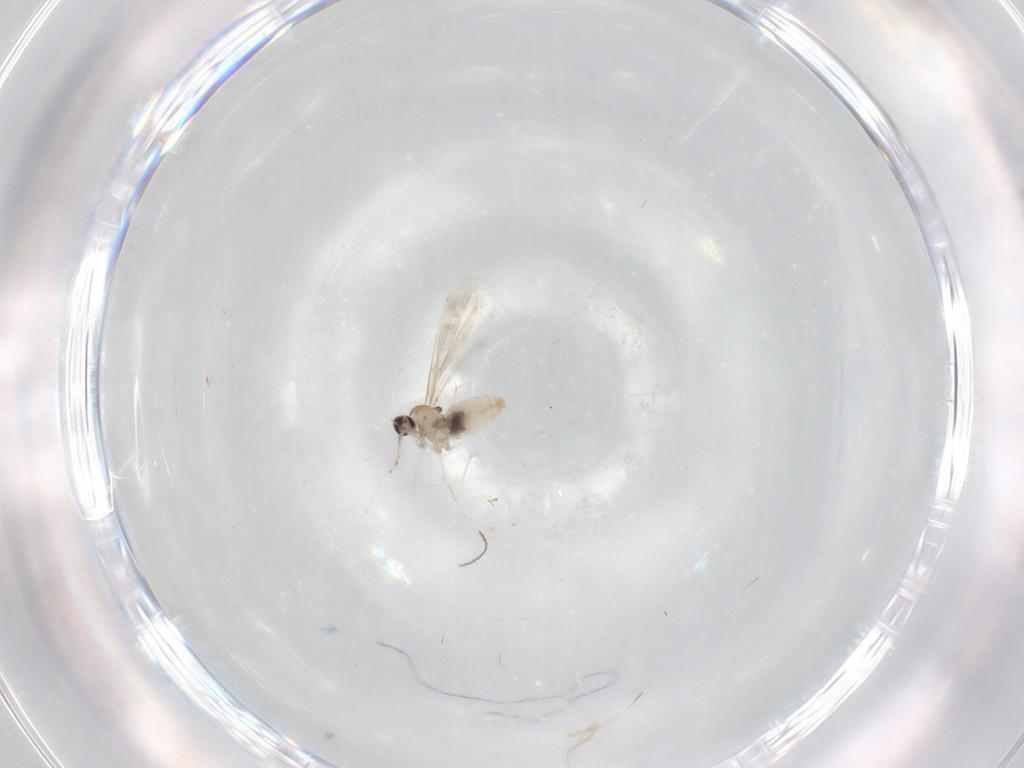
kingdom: Animalia
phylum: Arthropoda
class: Insecta
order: Diptera
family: Cecidomyiidae
